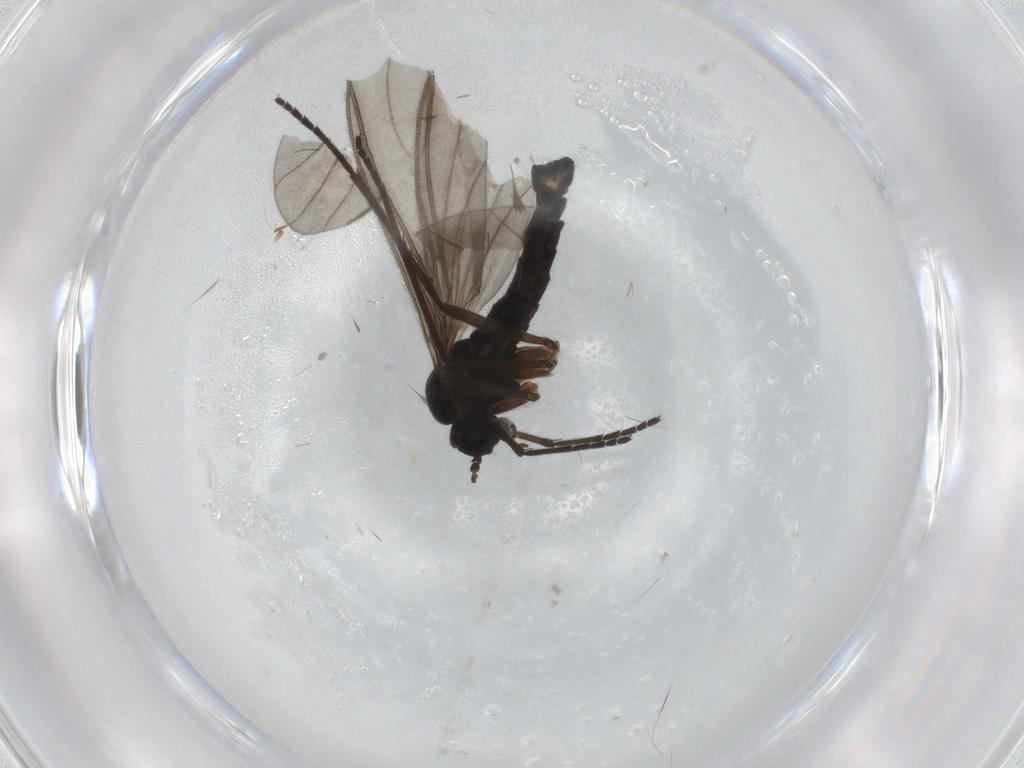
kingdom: Animalia
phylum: Arthropoda
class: Insecta
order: Diptera
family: Sciaridae
